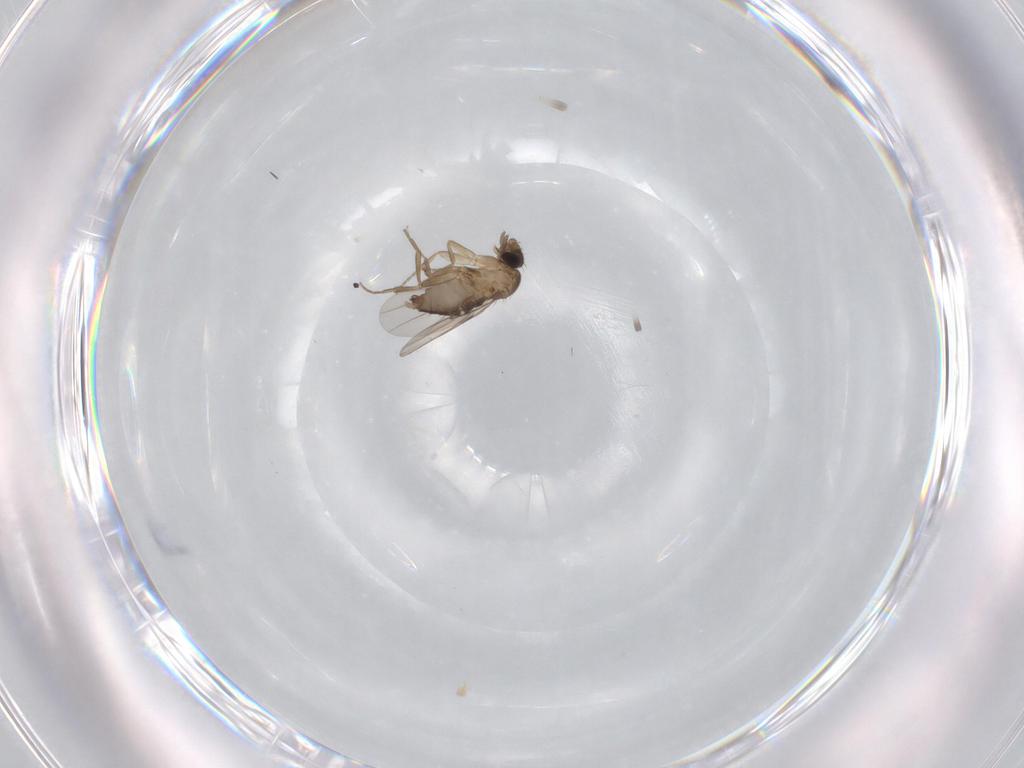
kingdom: Animalia
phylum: Arthropoda
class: Insecta
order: Diptera
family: Phoridae
